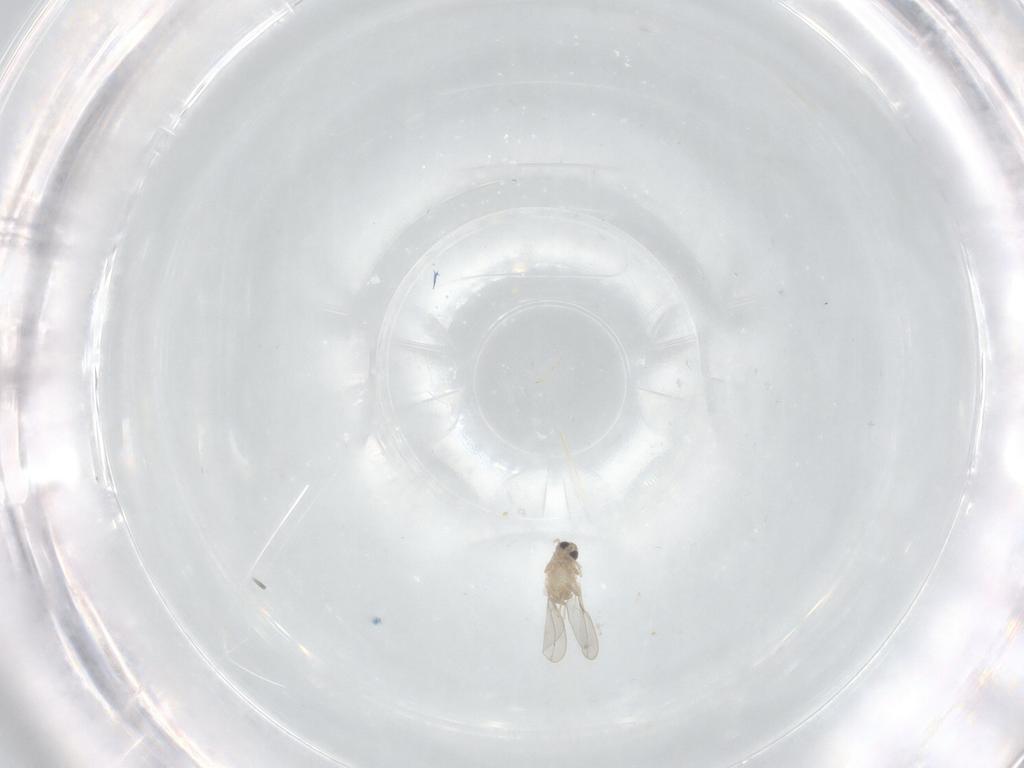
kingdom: Animalia
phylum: Arthropoda
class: Insecta
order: Diptera
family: Cecidomyiidae
